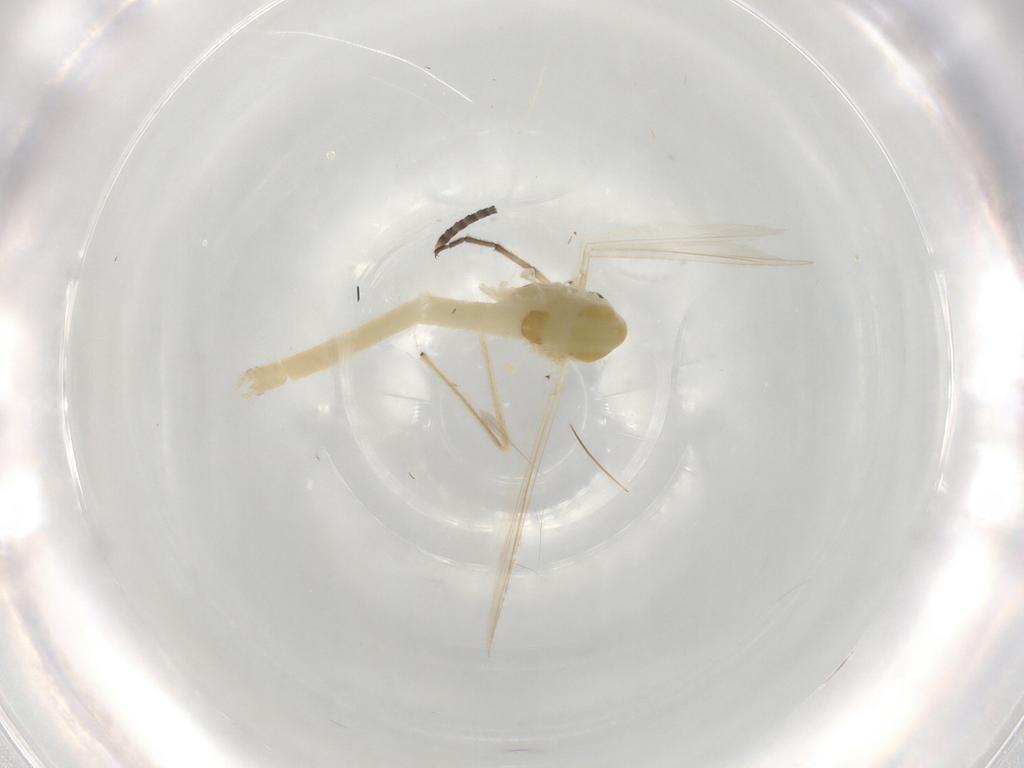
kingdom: Animalia
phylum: Arthropoda
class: Insecta
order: Diptera
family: Chironomidae
